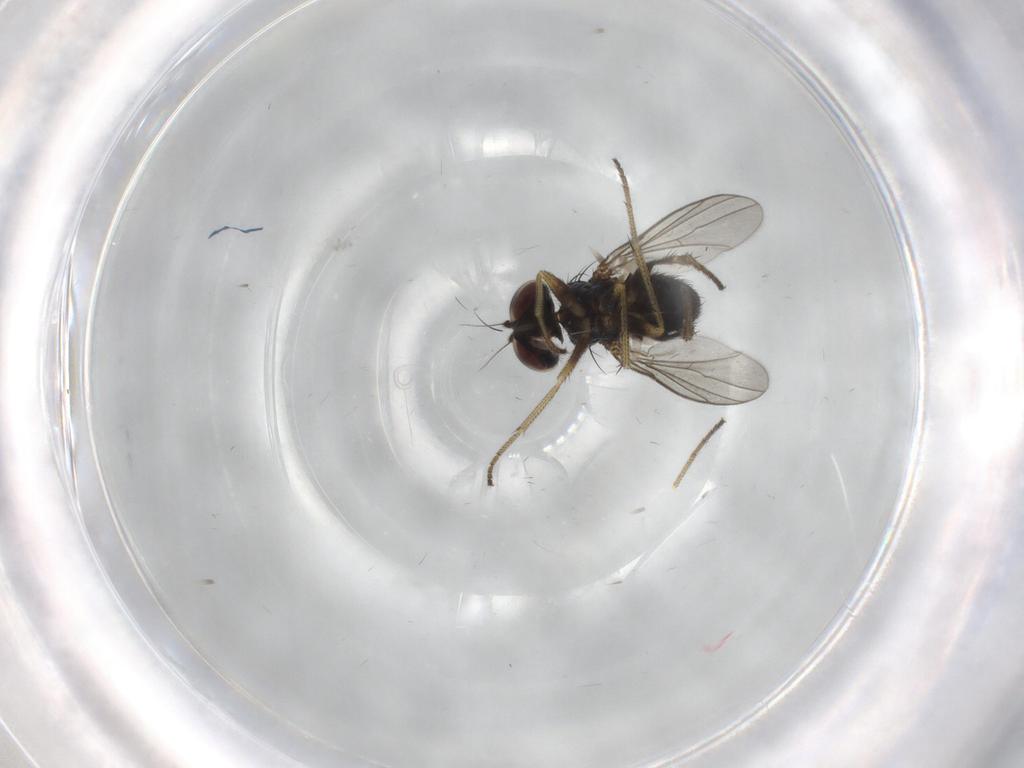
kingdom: Animalia
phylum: Arthropoda
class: Insecta
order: Diptera
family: Dolichopodidae
